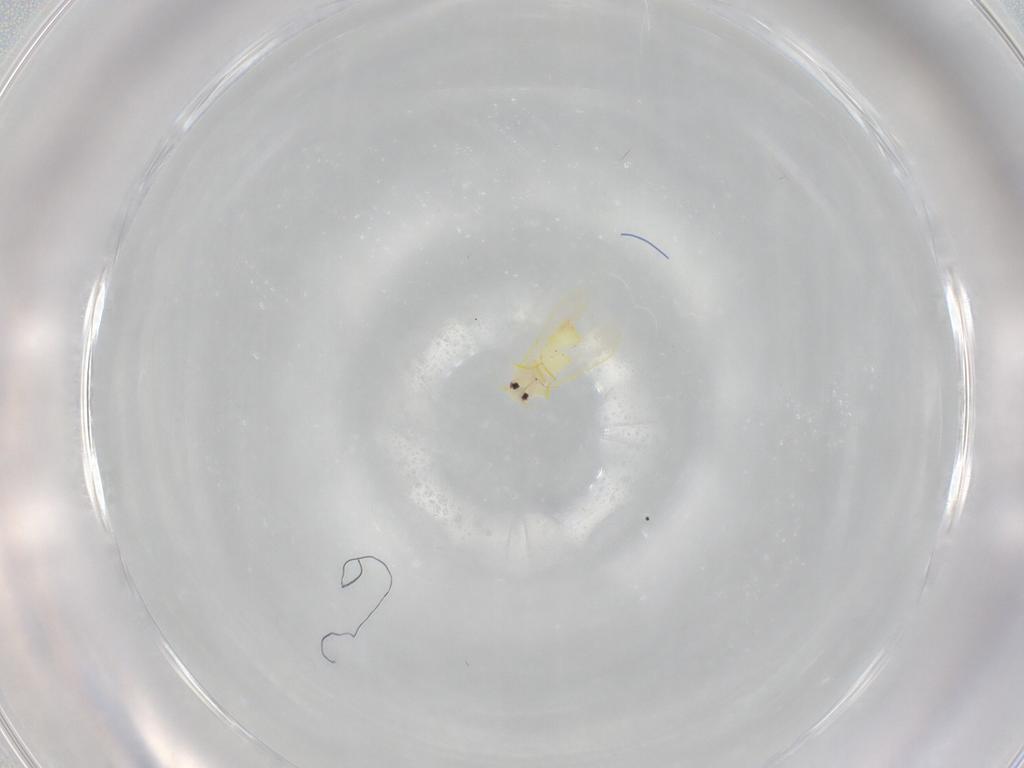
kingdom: Animalia
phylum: Arthropoda
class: Insecta
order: Hemiptera
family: Aleyrodidae
